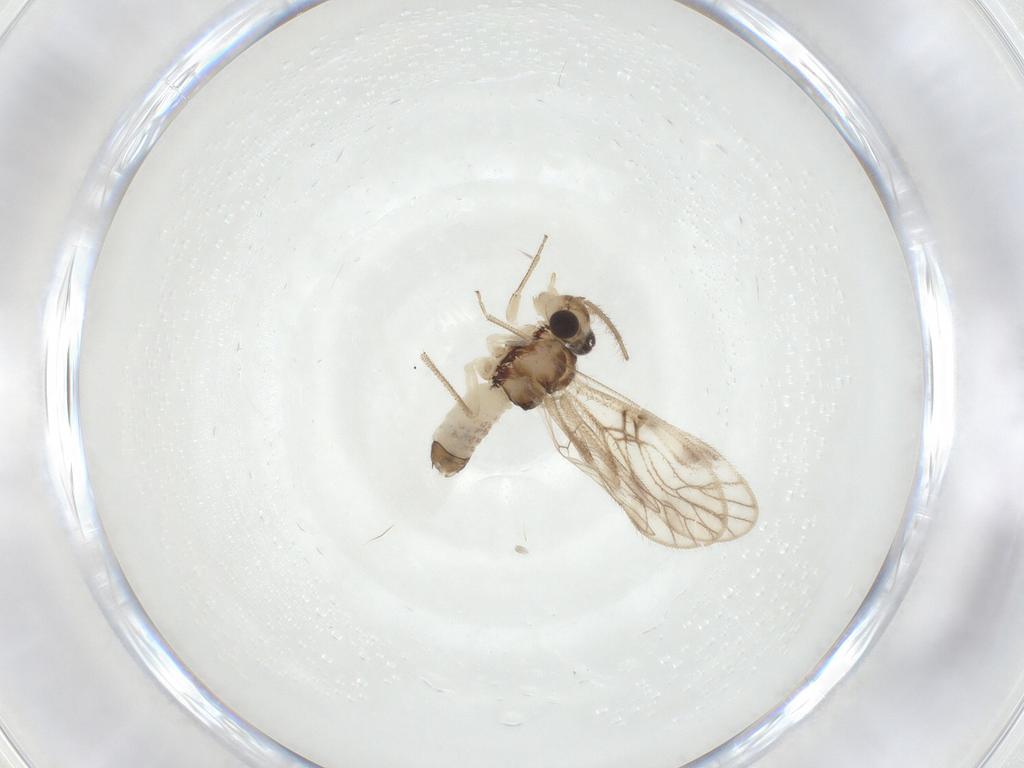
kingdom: Animalia
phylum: Arthropoda
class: Insecta
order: Psocodea
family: Caeciliusidae
